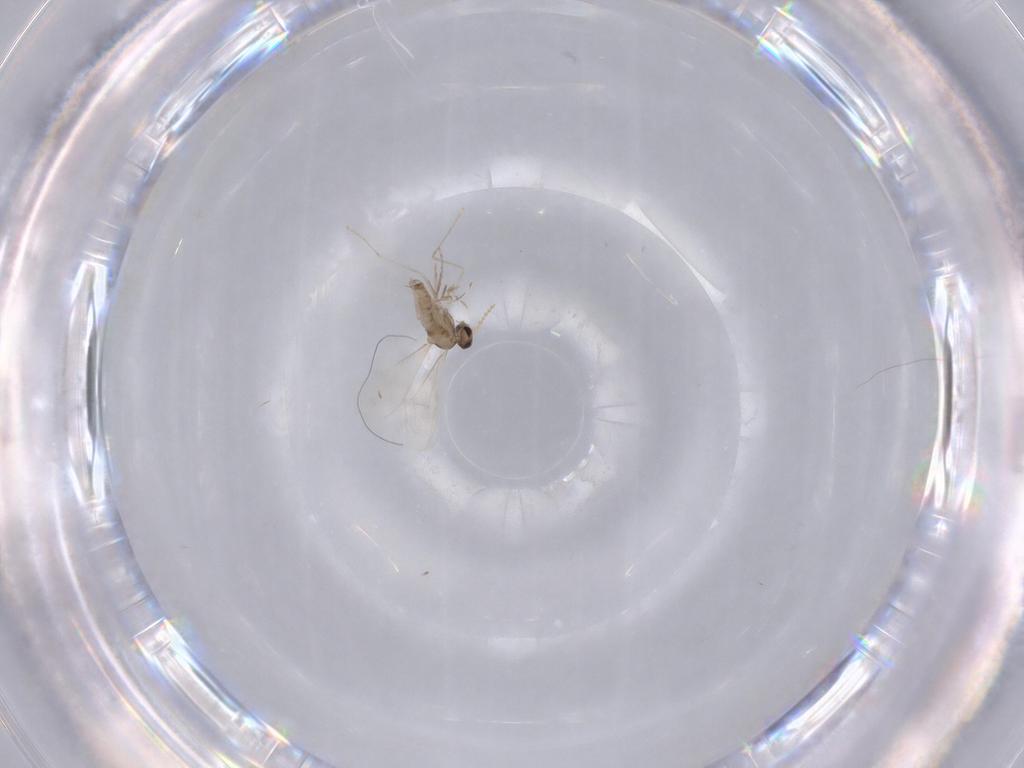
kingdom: Animalia
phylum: Arthropoda
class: Insecta
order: Diptera
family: Cecidomyiidae
